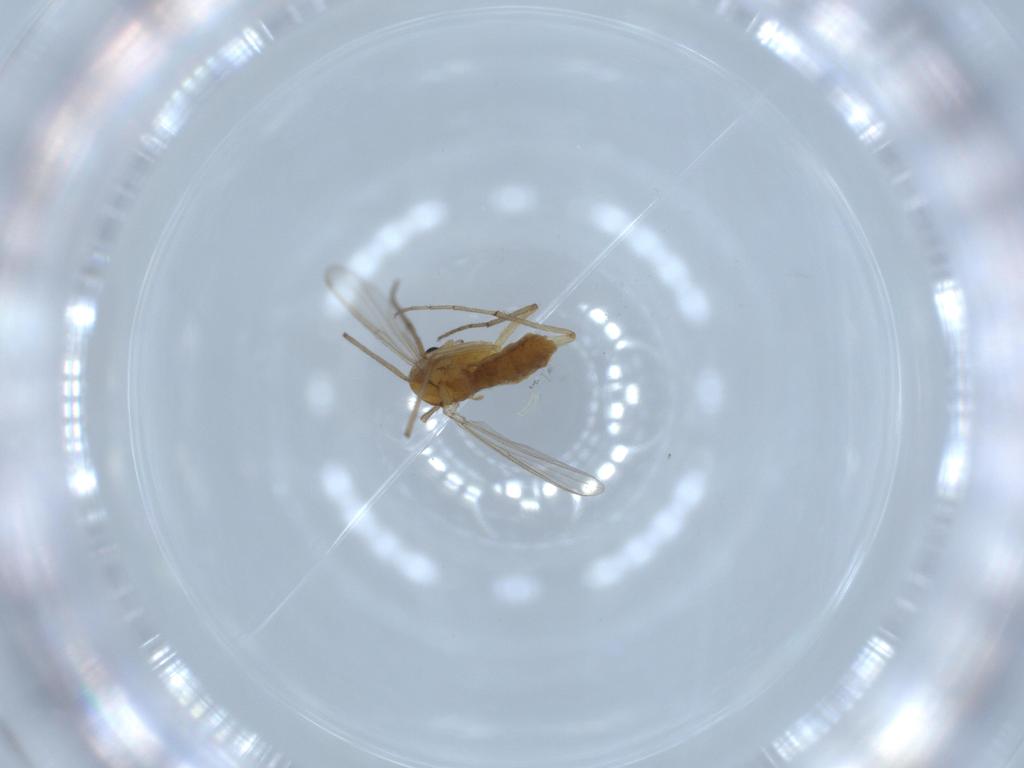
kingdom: Animalia
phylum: Arthropoda
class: Insecta
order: Diptera
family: Chironomidae
